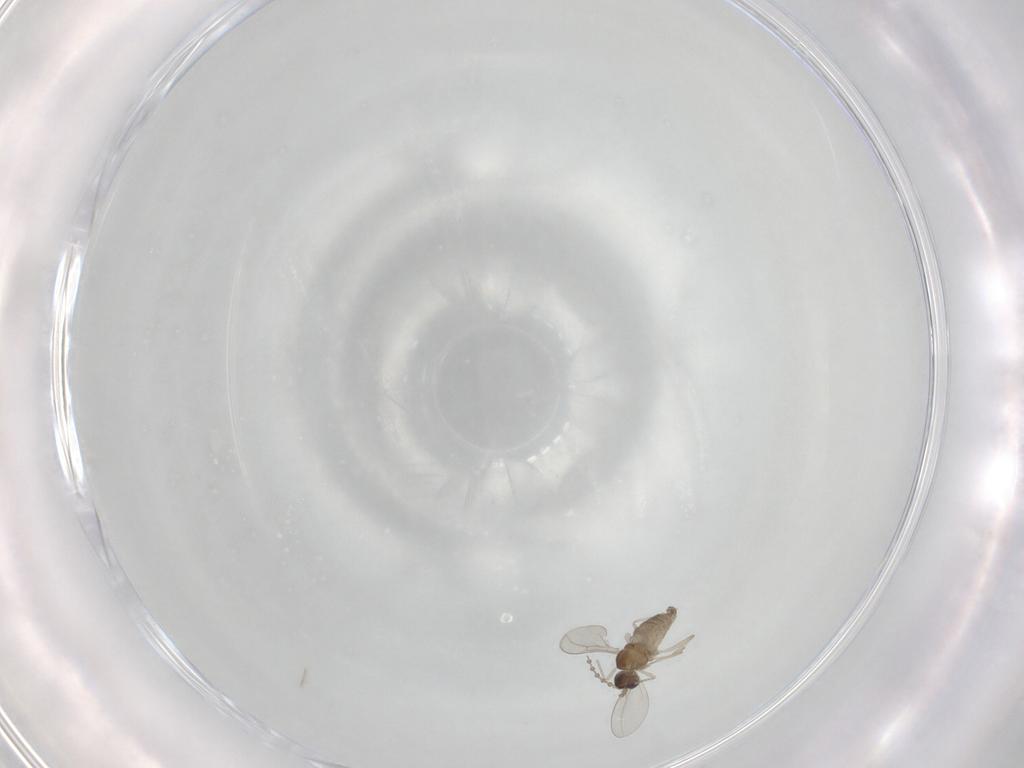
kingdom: Animalia
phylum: Arthropoda
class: Insecta
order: Diptera
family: Cecidomyiidae
